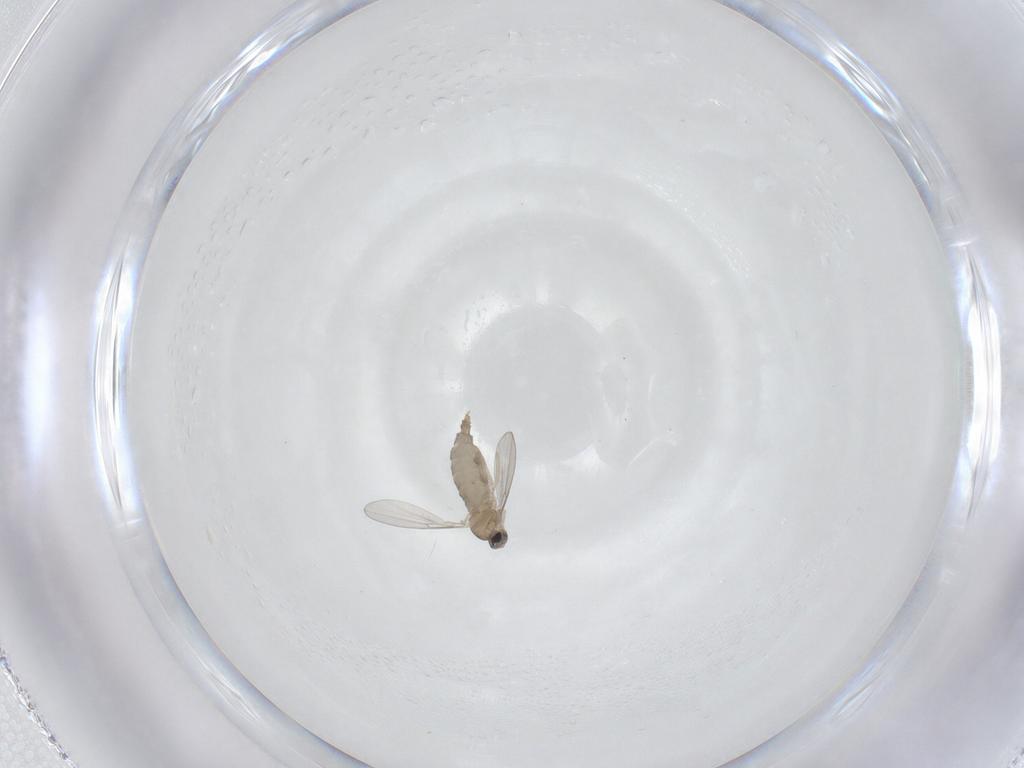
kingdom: Animalia
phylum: Arthropoda
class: Insecta
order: Diptera
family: Cecidomyiidae
